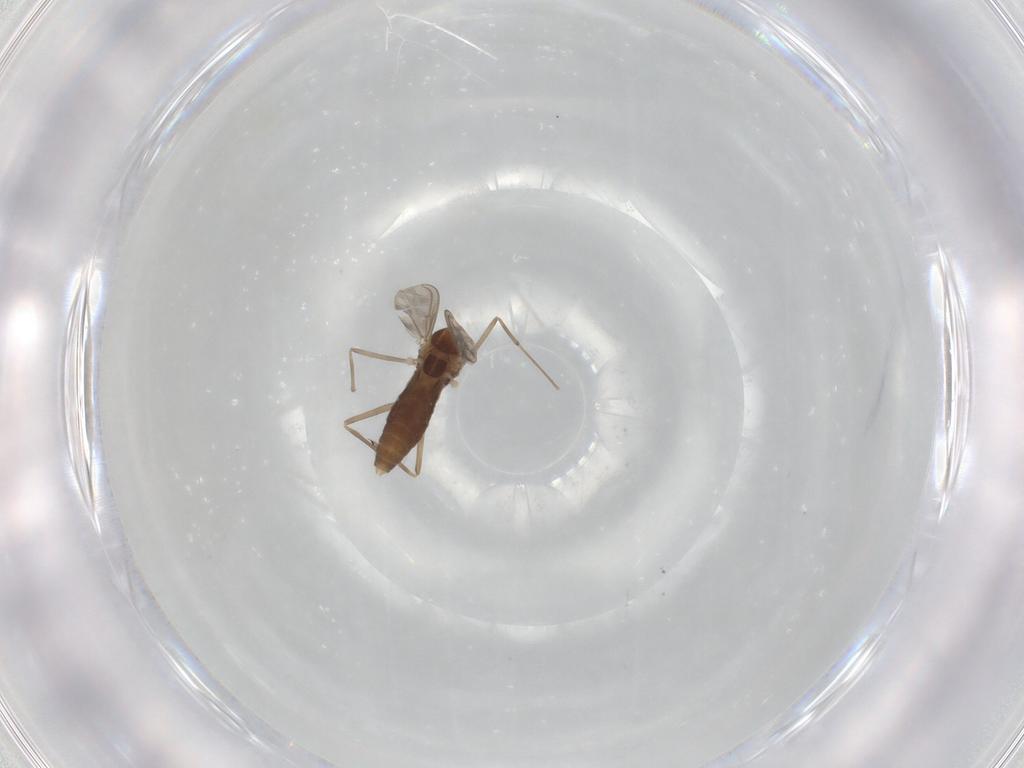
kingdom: Animalia
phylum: Arthropoda
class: Insecta
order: Diptera
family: Chironomidae
